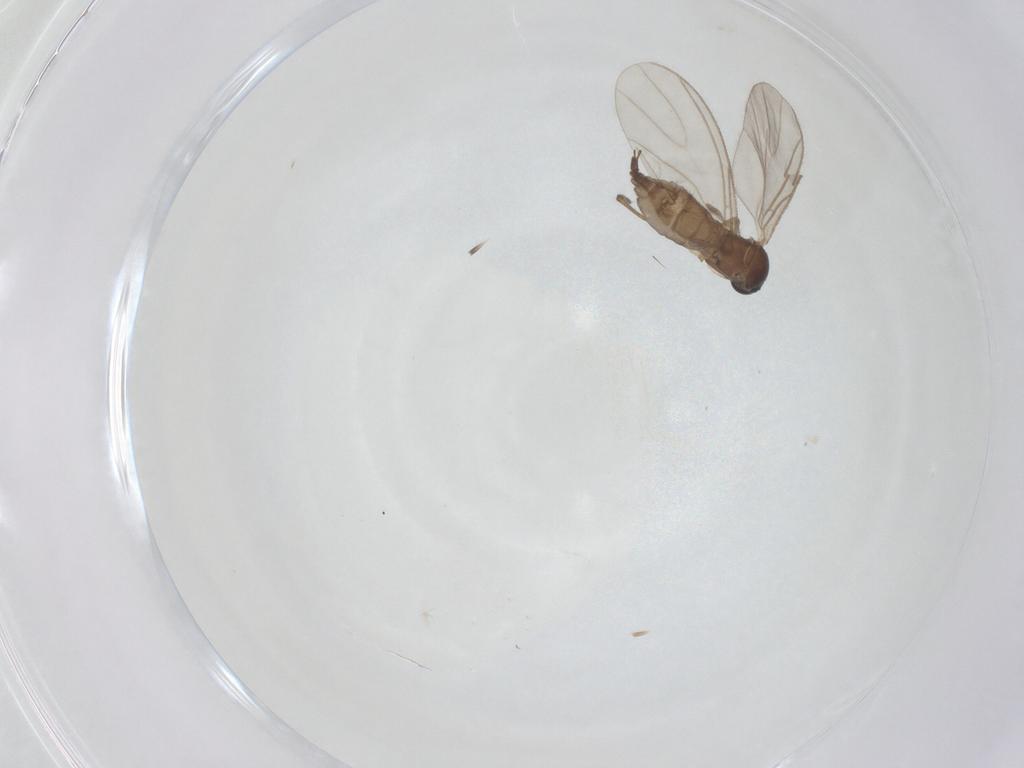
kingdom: Animalia
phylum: Arthropoda
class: Insecta
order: Diptera
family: Sciaridae
